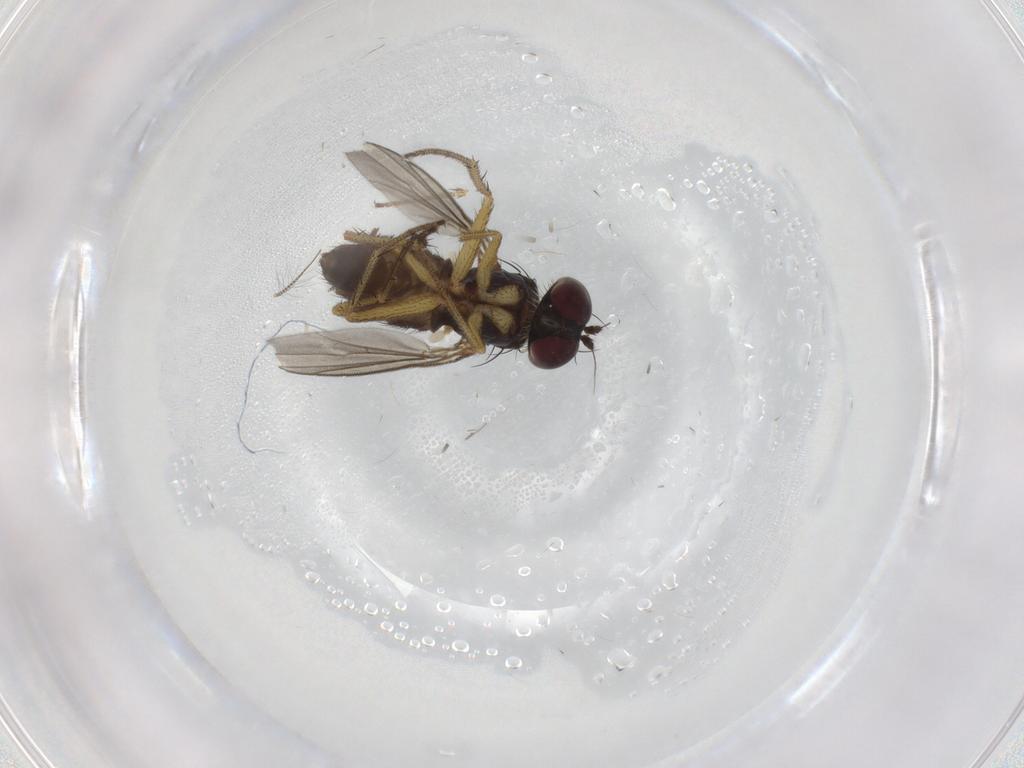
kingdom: Animalia
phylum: Arthropoda
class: Insecta
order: Diptera
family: Dolichopodidae
